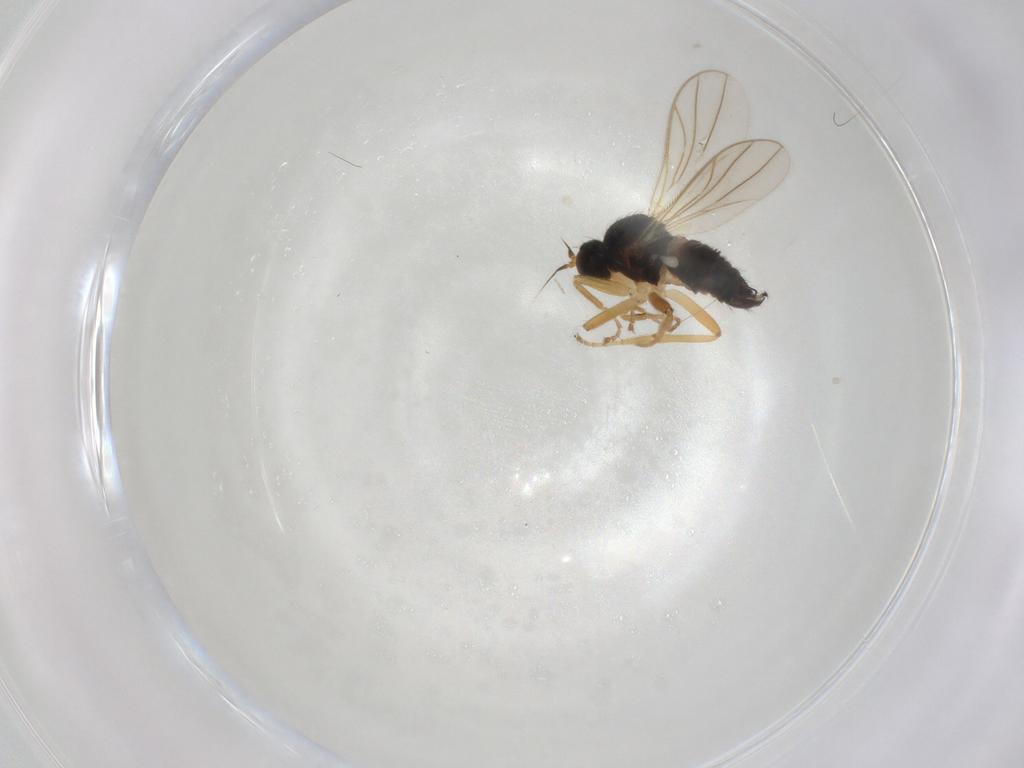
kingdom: Animalia
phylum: Arthropoda
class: Insecta
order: Diptera
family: Hybotidae
